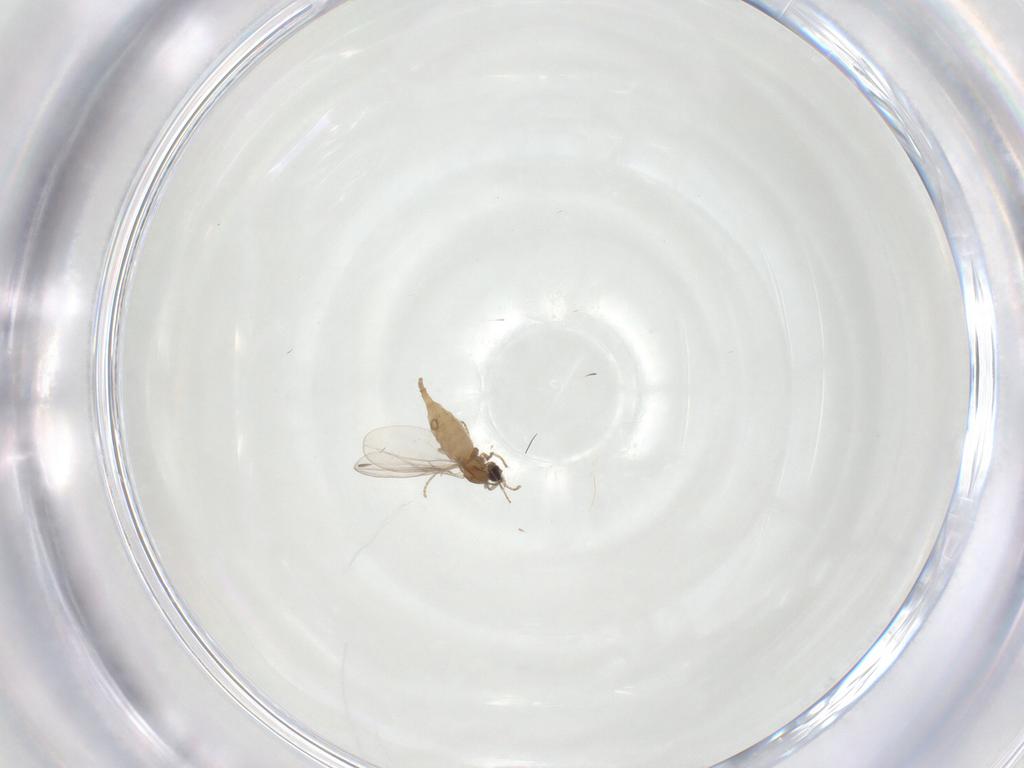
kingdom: Animalia
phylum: Arthropoda
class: Insecta
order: Diptera
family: Cecidomyiidae
